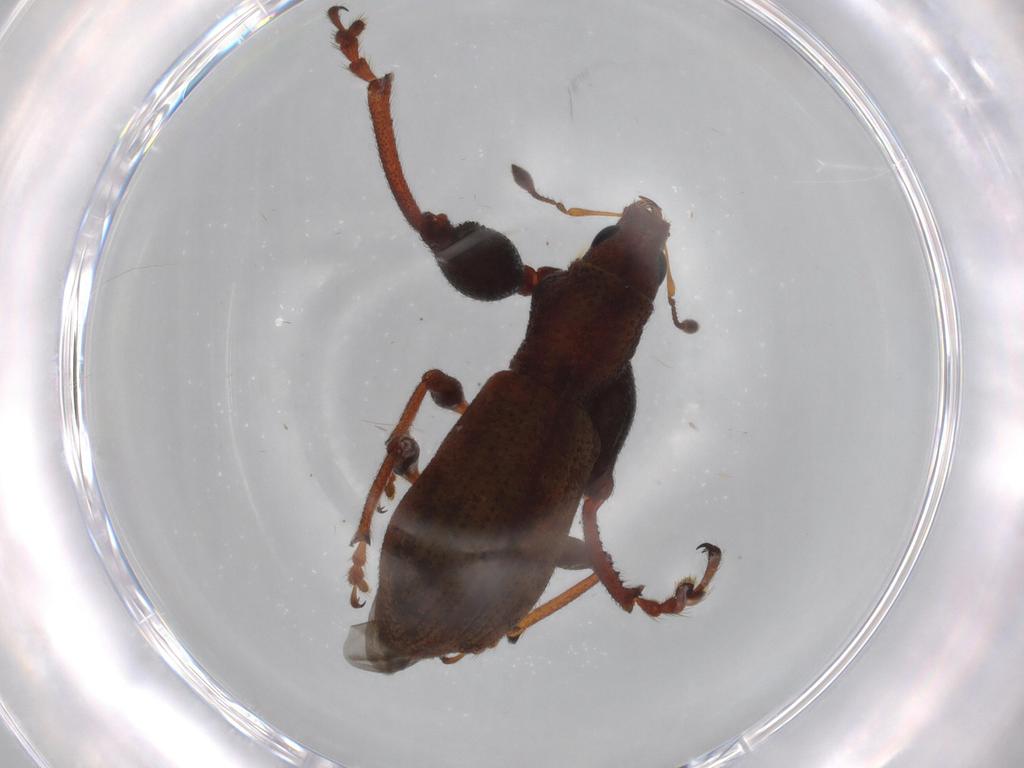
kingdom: Animalia
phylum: Arthropoda
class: Insecta
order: Coleoptera
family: Curculionidae
